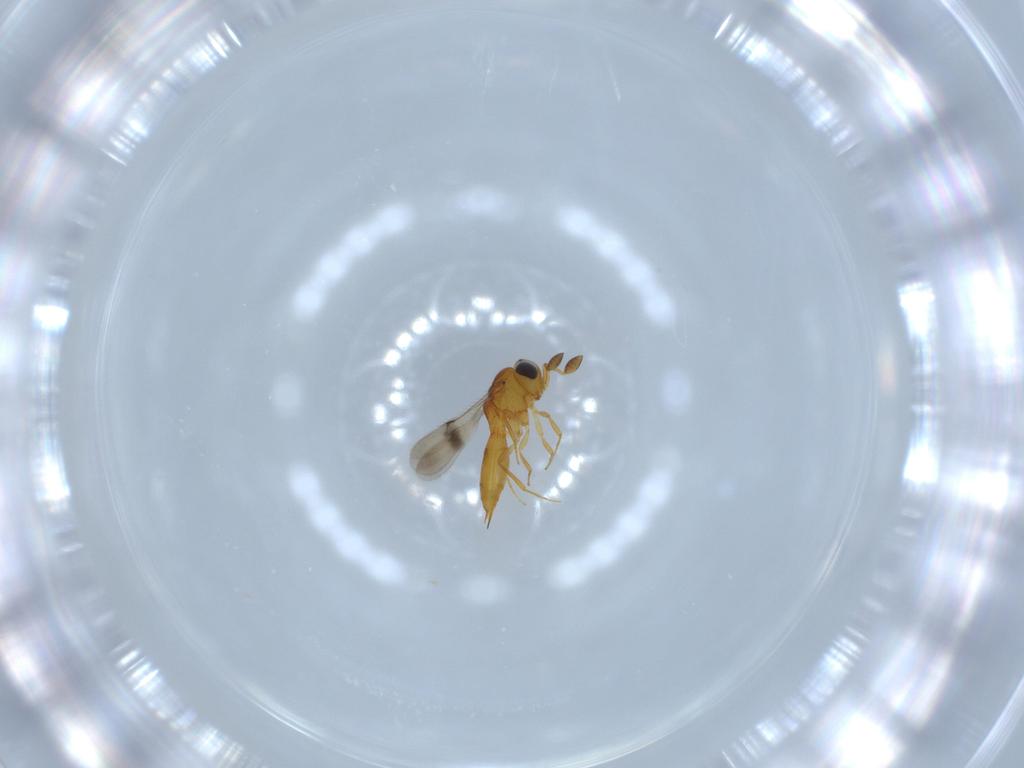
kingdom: Animalia
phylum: Arthropoda
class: Insecta
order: Hymenoptera
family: Scelionidae
